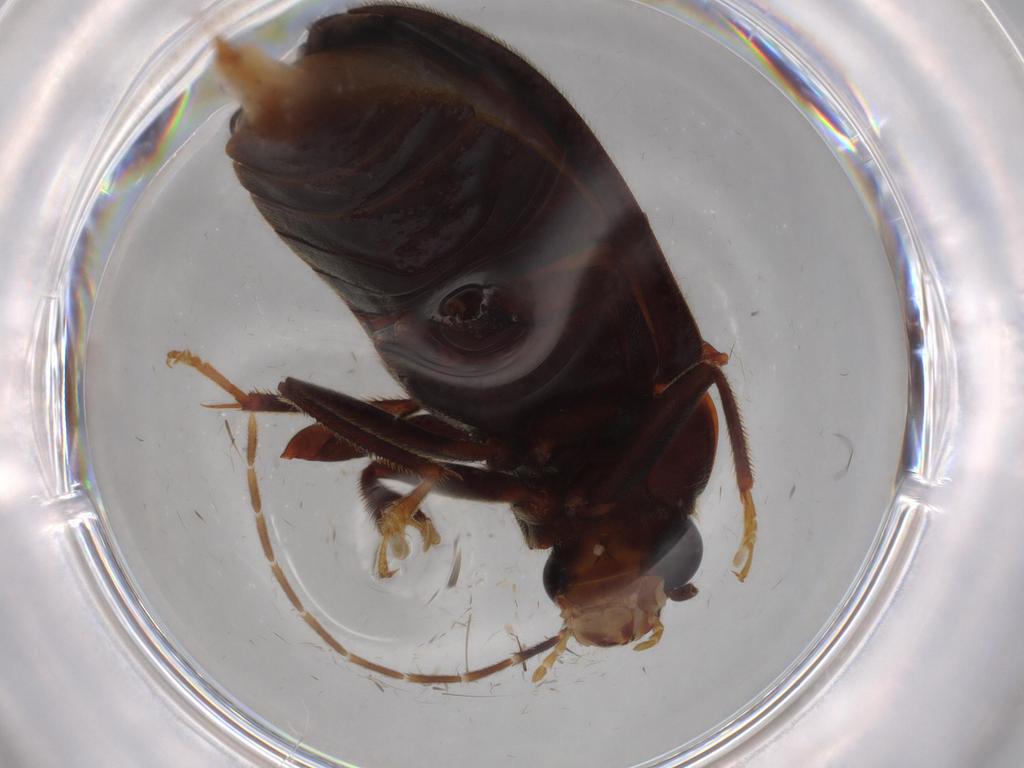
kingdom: Animalia
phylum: Arthropoda
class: Insecta
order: Coleoptera
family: Ptilodactylidae
